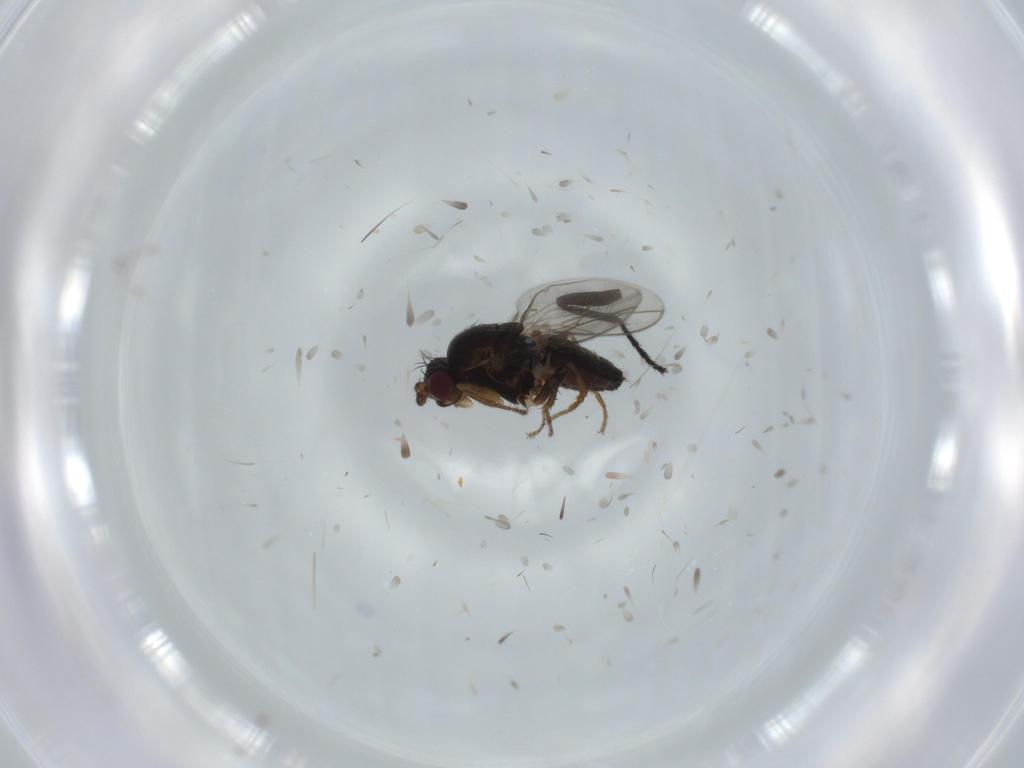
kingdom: Animalia
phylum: Arthropoda
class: Insecta
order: Diptera
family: Sphaeroceridae
